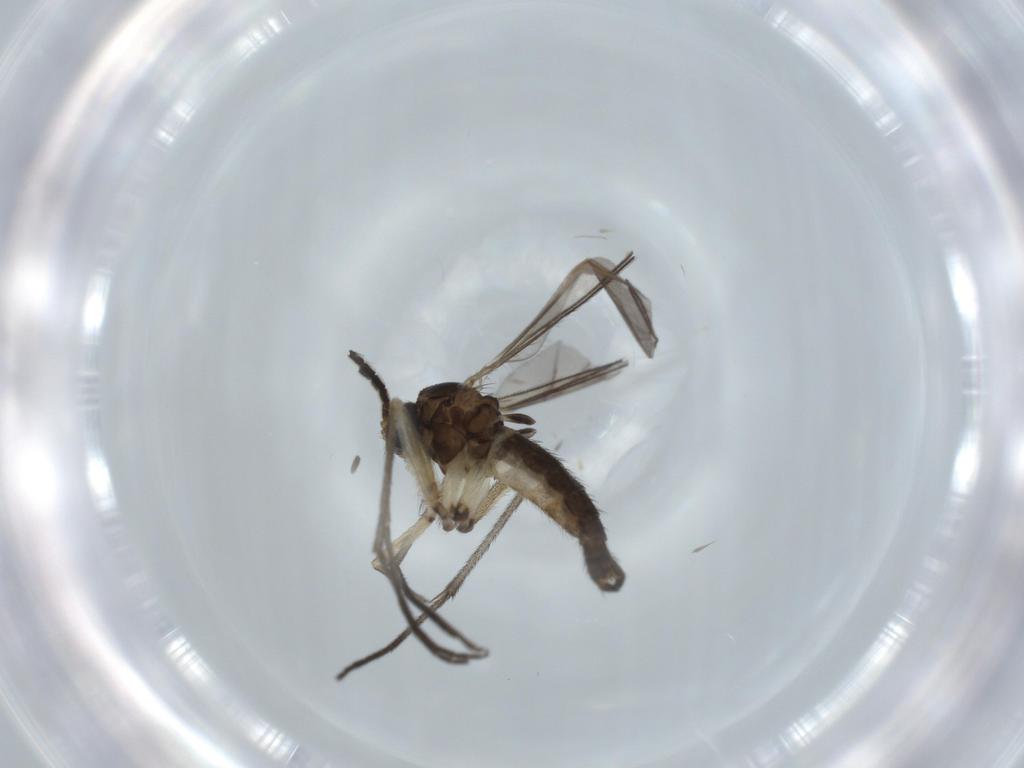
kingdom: Animalia
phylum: Arthropoda
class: Insecta
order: Diptera
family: Sciaridae
